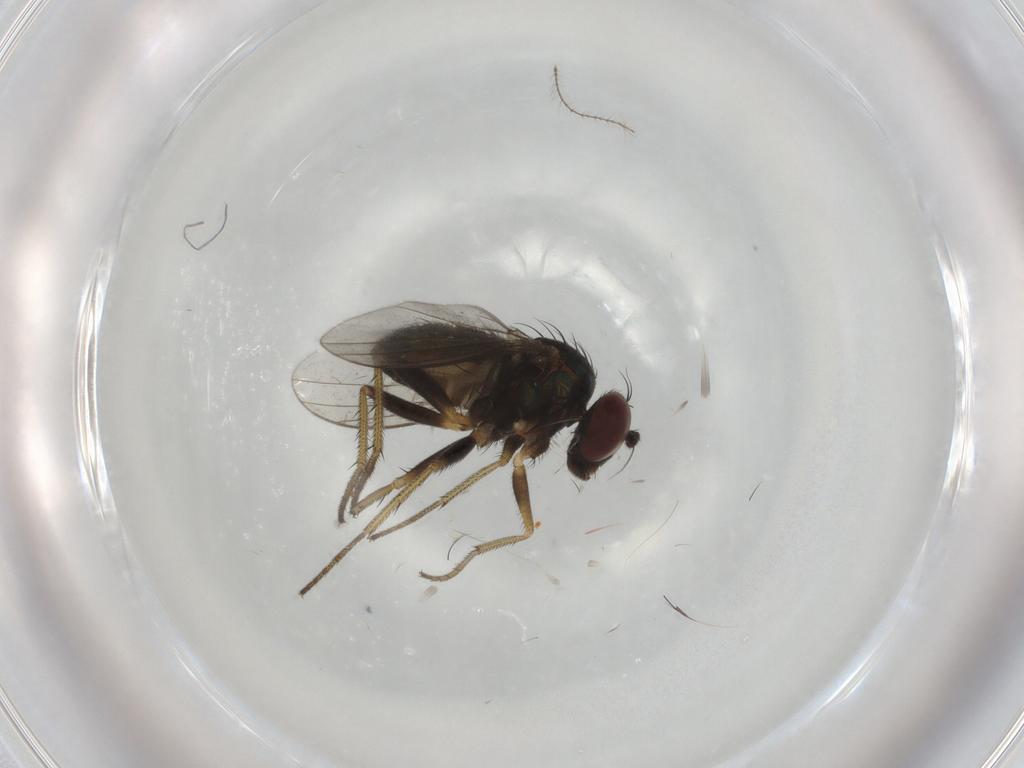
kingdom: Animalia
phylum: Arthropoda
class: Insecta
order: Diptera
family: Dolichopodidae
